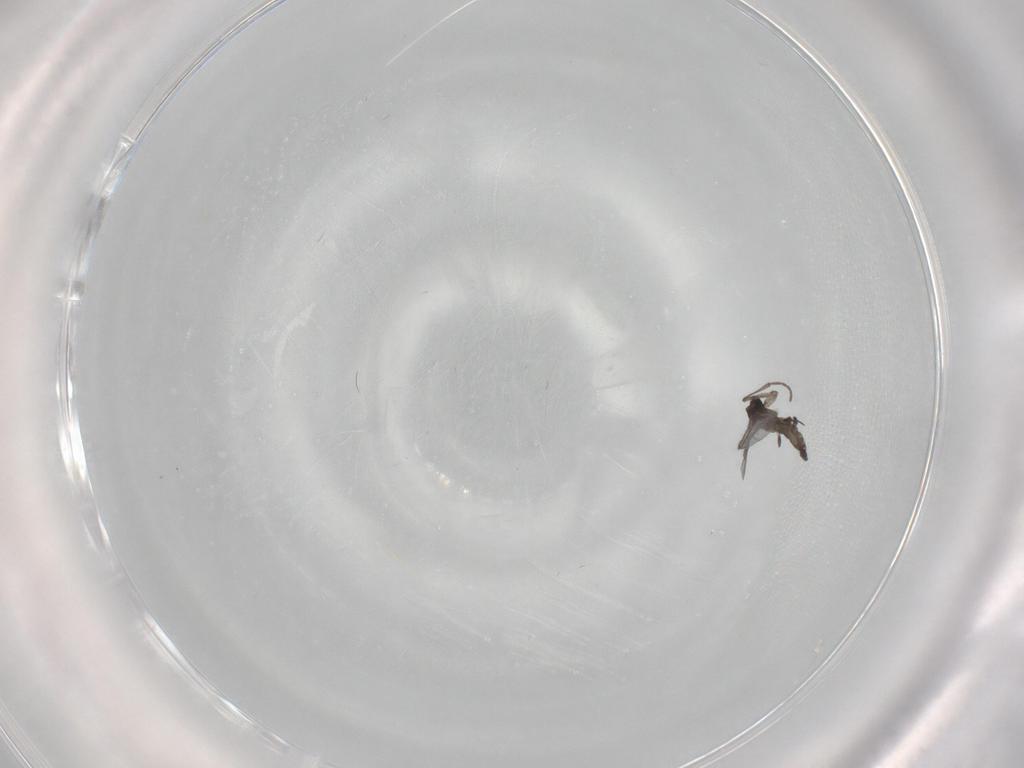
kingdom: Animalia
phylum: Arthropoda
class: Insecta
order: Diptera
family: Sciaridae
